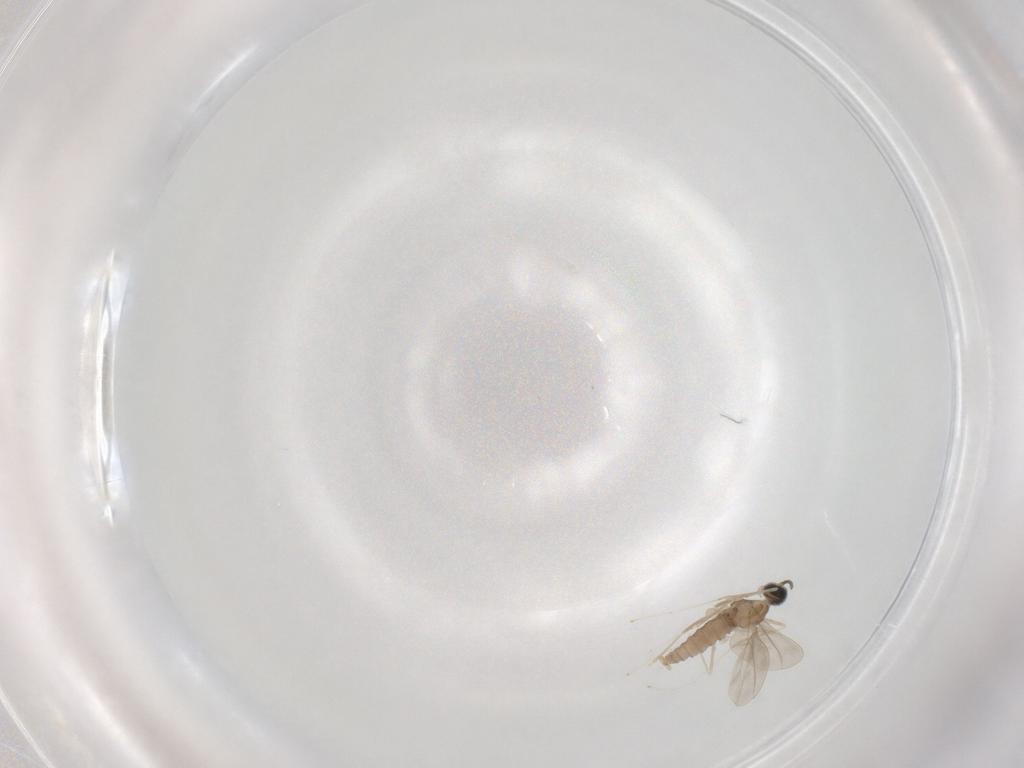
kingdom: Animalia
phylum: Arthropoda
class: Insecta
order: Diptera
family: Cecidomyiidae
